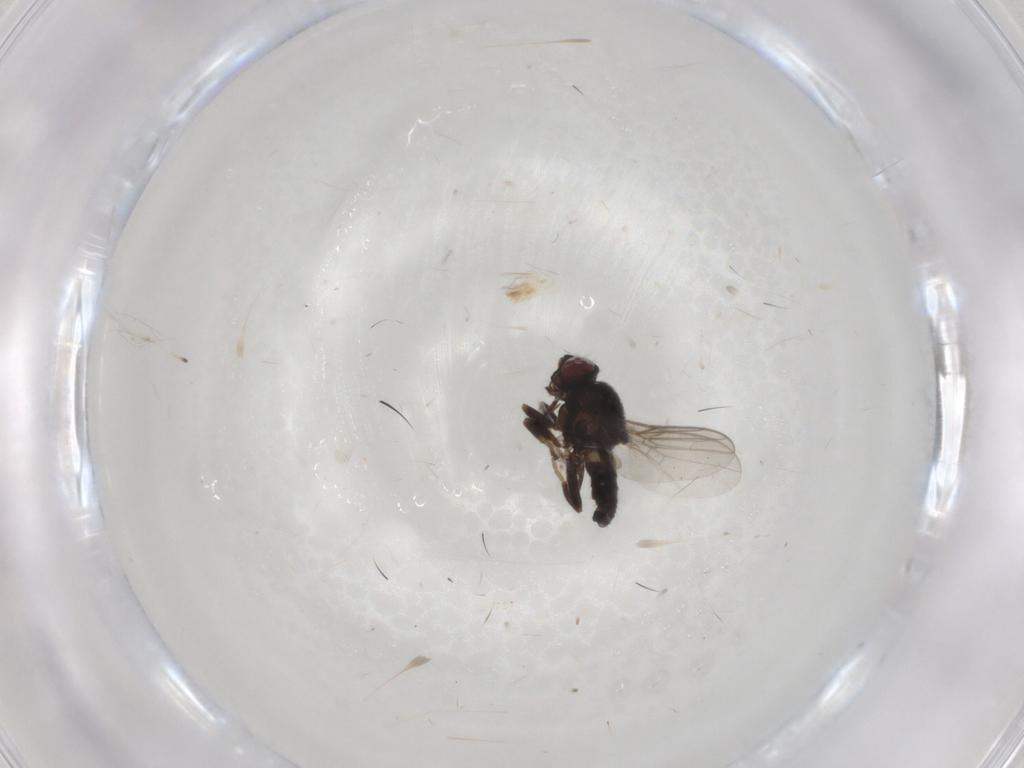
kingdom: Animalia
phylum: Arthropoda
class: Insecta
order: Diptera
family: Chloropidae
